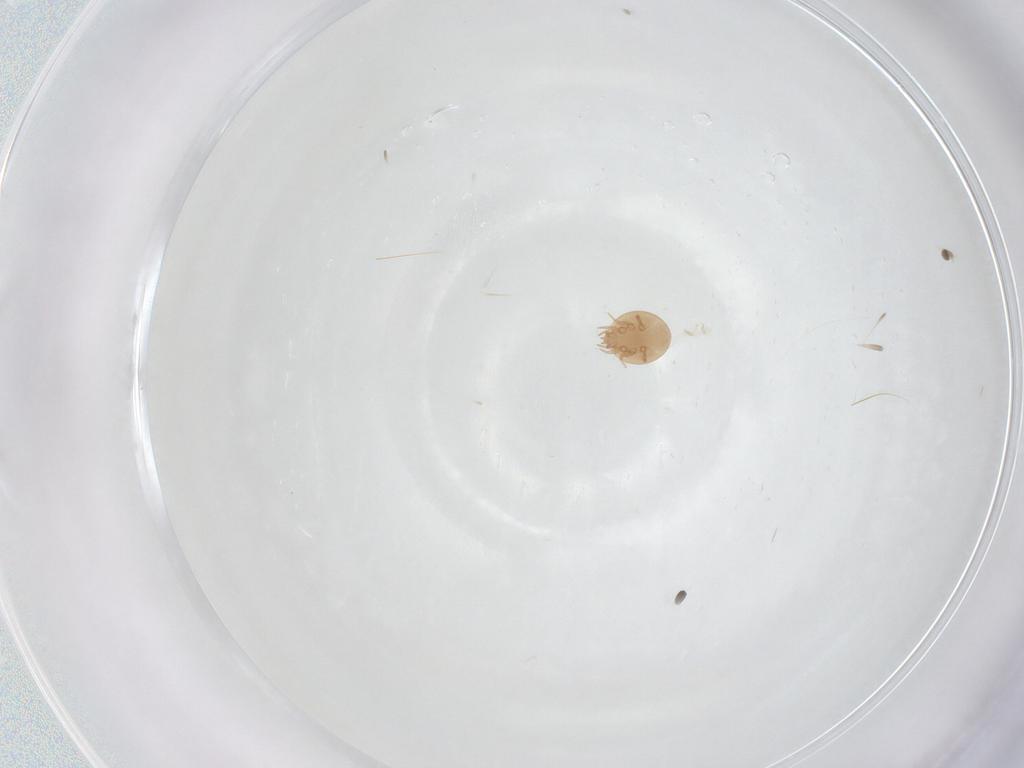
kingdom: Animalia
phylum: Arthropoda
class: Arachnida
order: Mesostigmata
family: Trematuridae
